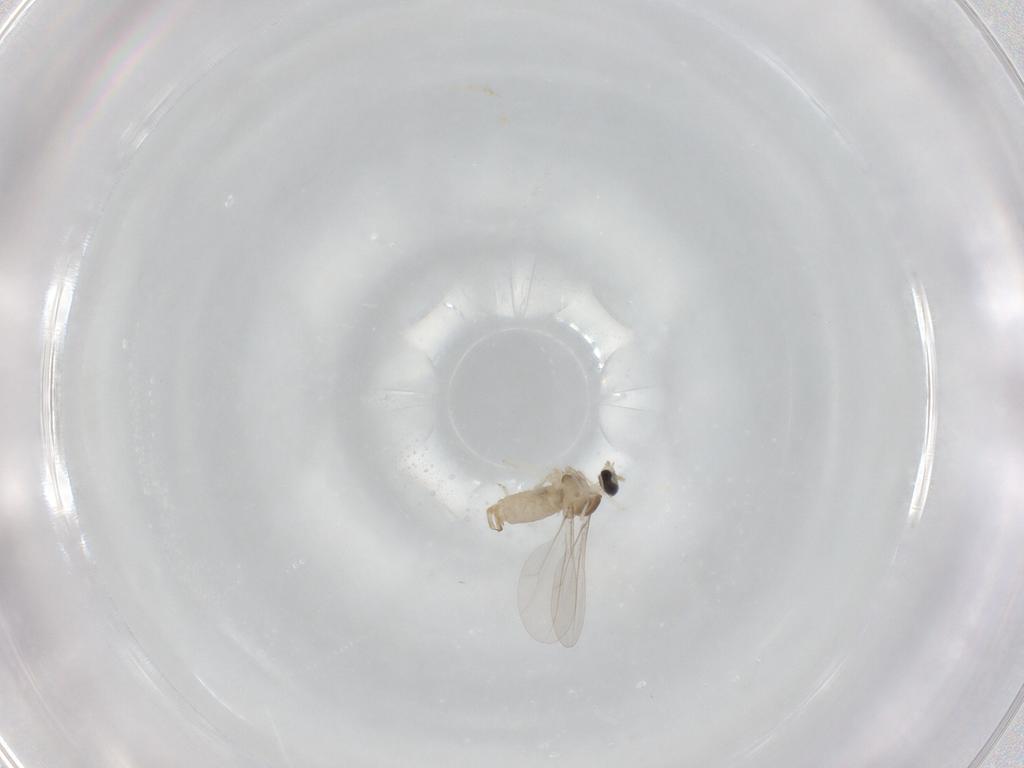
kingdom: Animalia
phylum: Arthropoda
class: Insecta
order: Diptera
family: Cecidomyiidae
